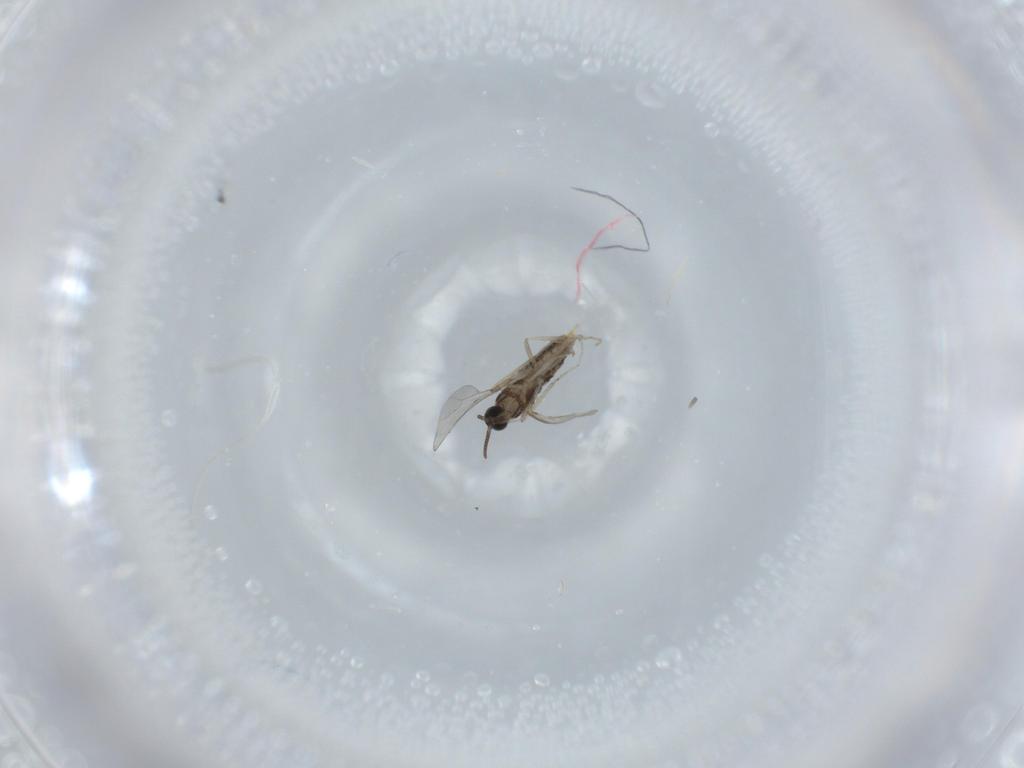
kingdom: Animalia
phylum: Arthropoda
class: Insecta
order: Diptera
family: Cecidomyiidae
